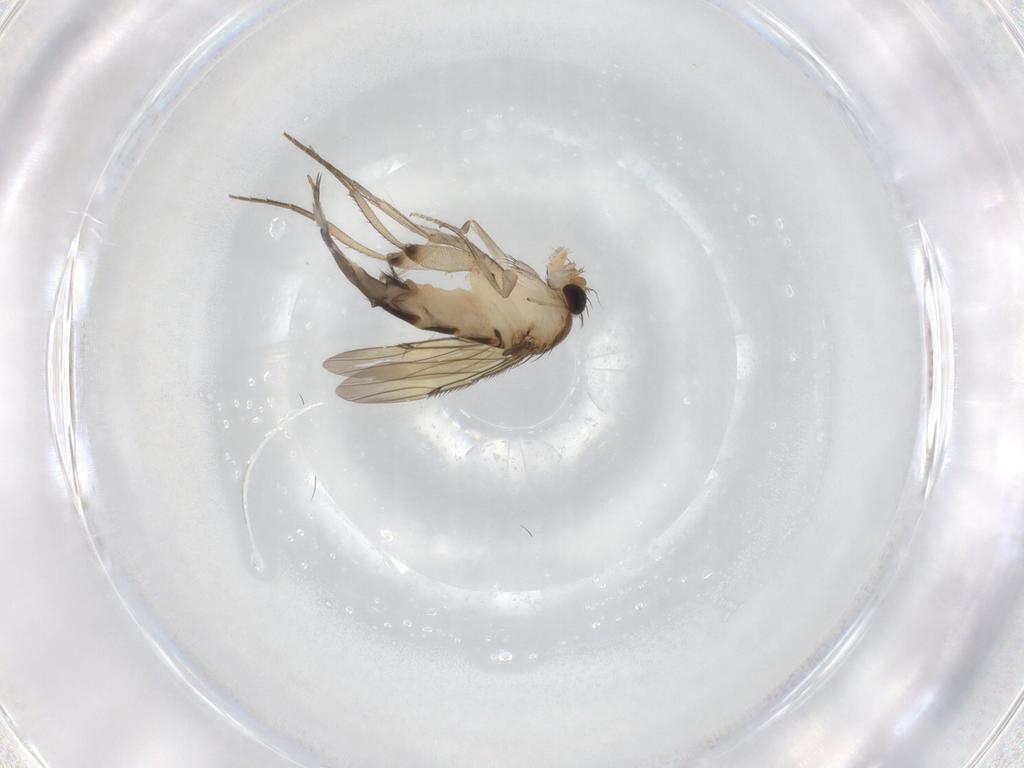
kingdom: Animalia
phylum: Arthropoda
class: Insecta
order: Diptera
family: Phoridae
